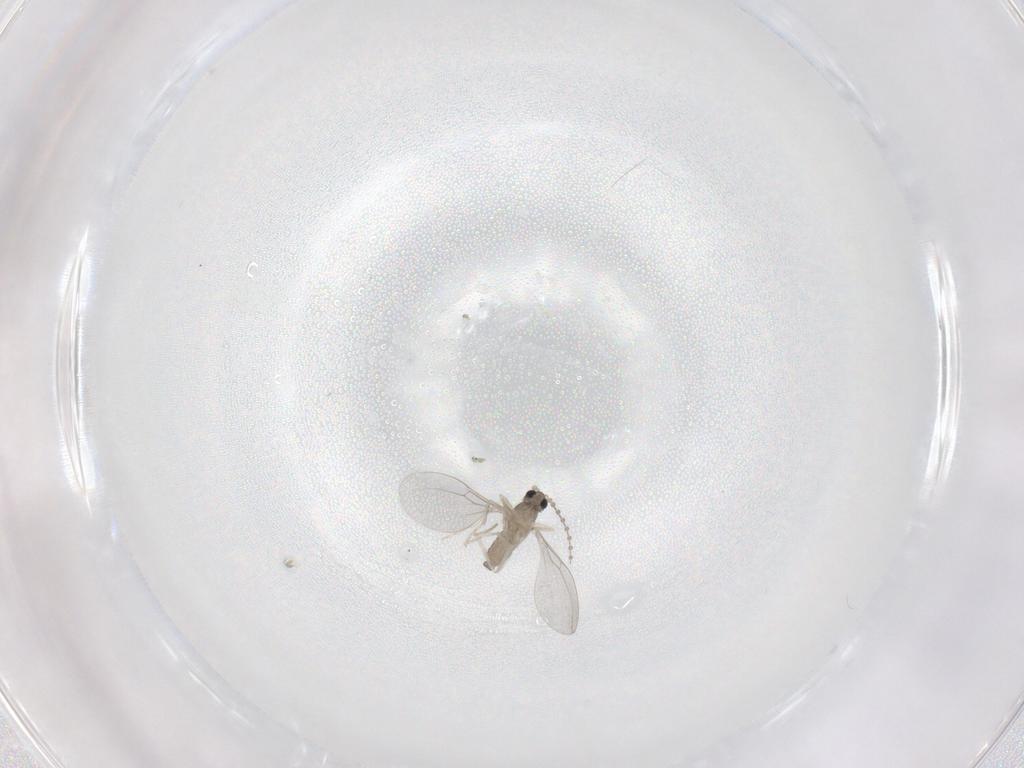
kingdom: Animalia
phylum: Arthropoda
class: Insecta
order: Diptera
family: Cecidomyiidae
